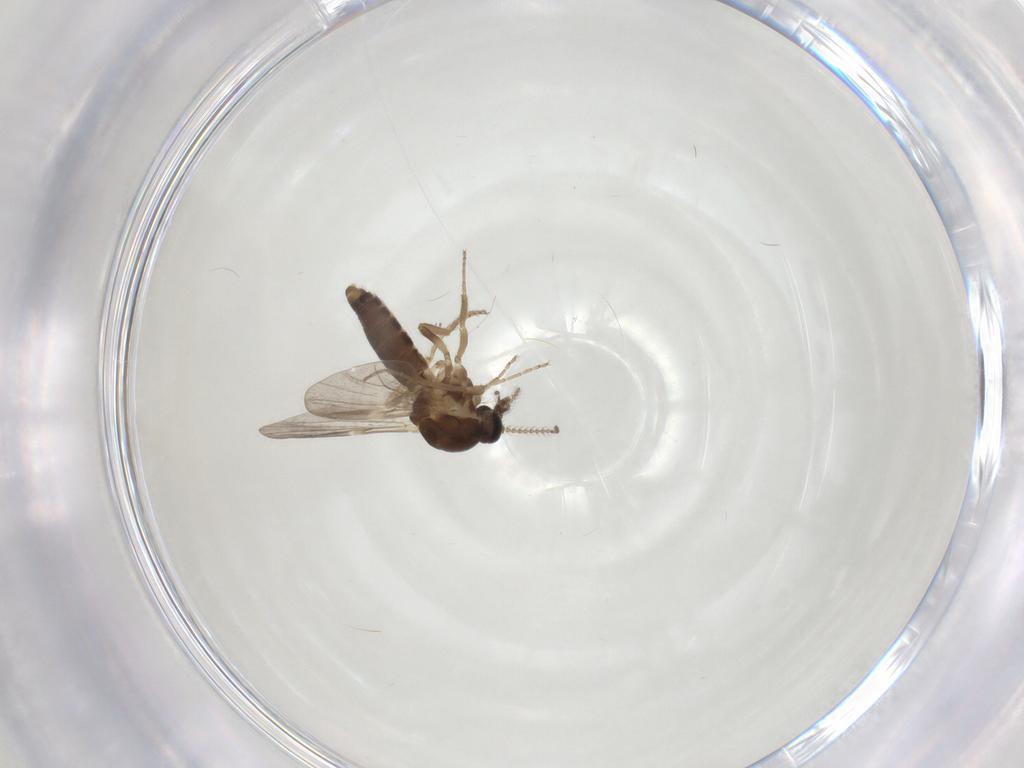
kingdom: Animalia
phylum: Arthropoda
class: Insecta
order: Diptera
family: Ceratopogonidae
